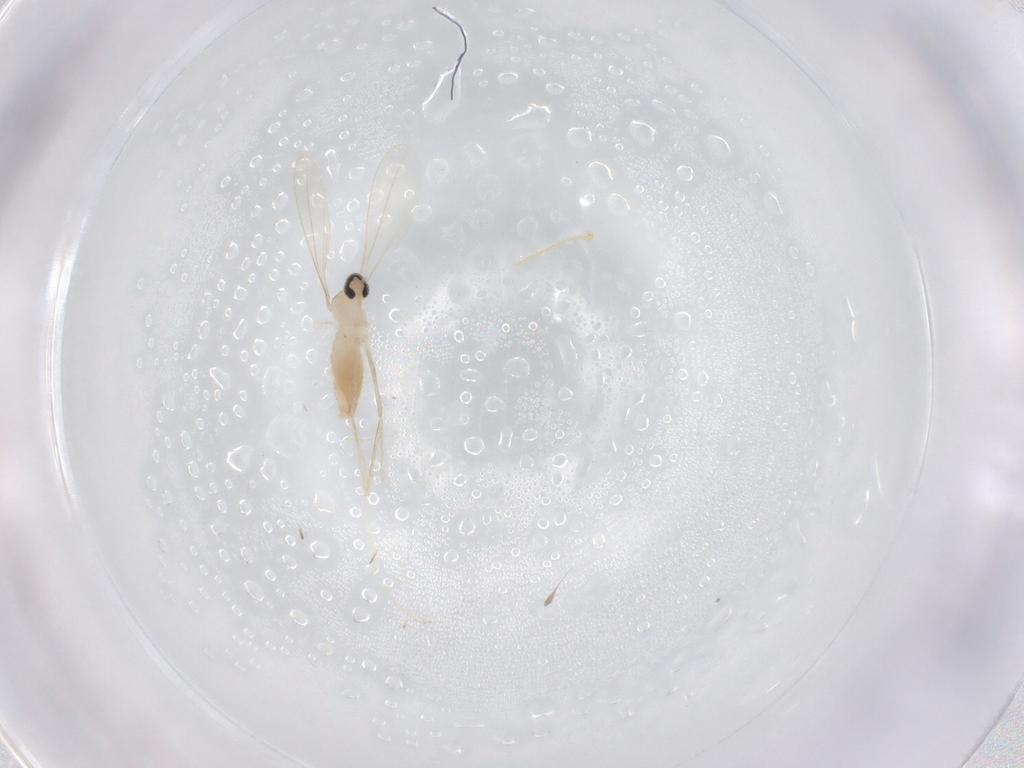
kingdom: Animalia
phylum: Arthropoda
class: Insecta
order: Diptera
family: Cecidomyiidae
